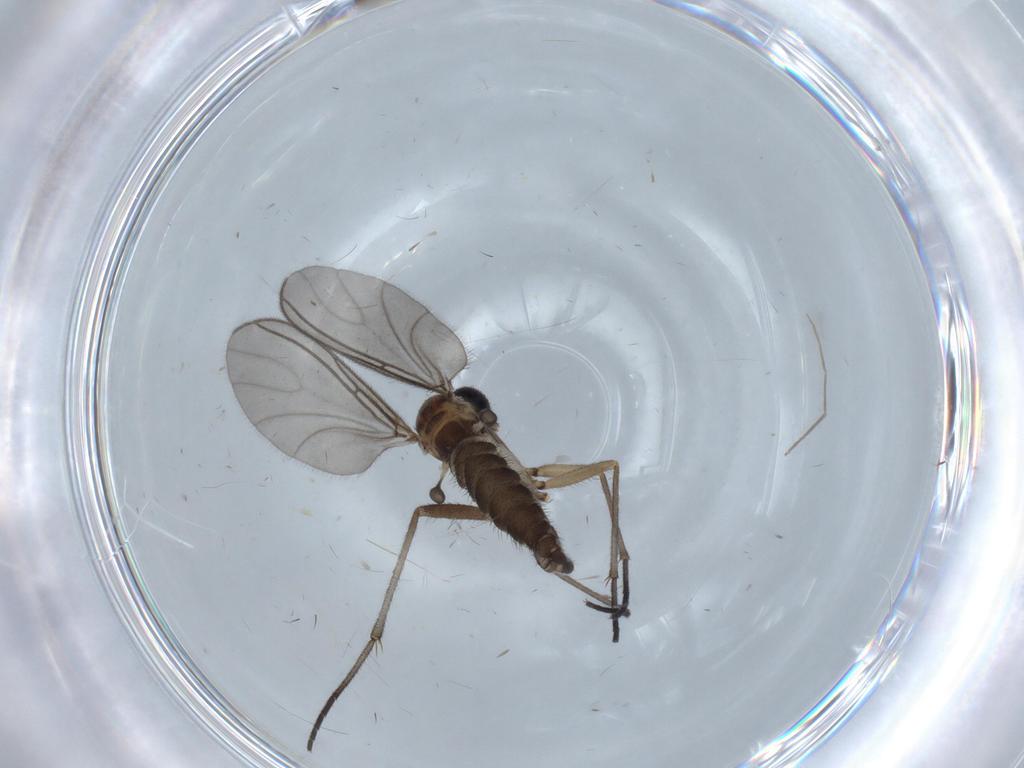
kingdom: Animalia
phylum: Arthropoda
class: Insecta
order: Diptera
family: Sciaridae
